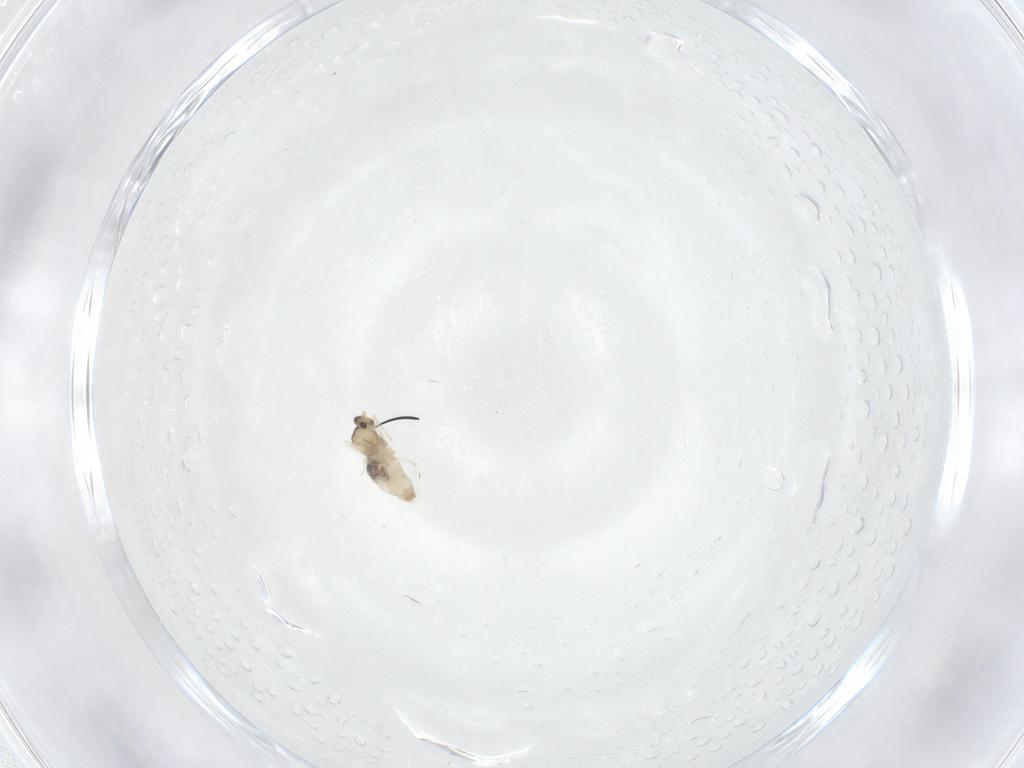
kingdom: Animalia
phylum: Arthropoda
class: Insecta
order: Diptera
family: Cecidomyiidae
